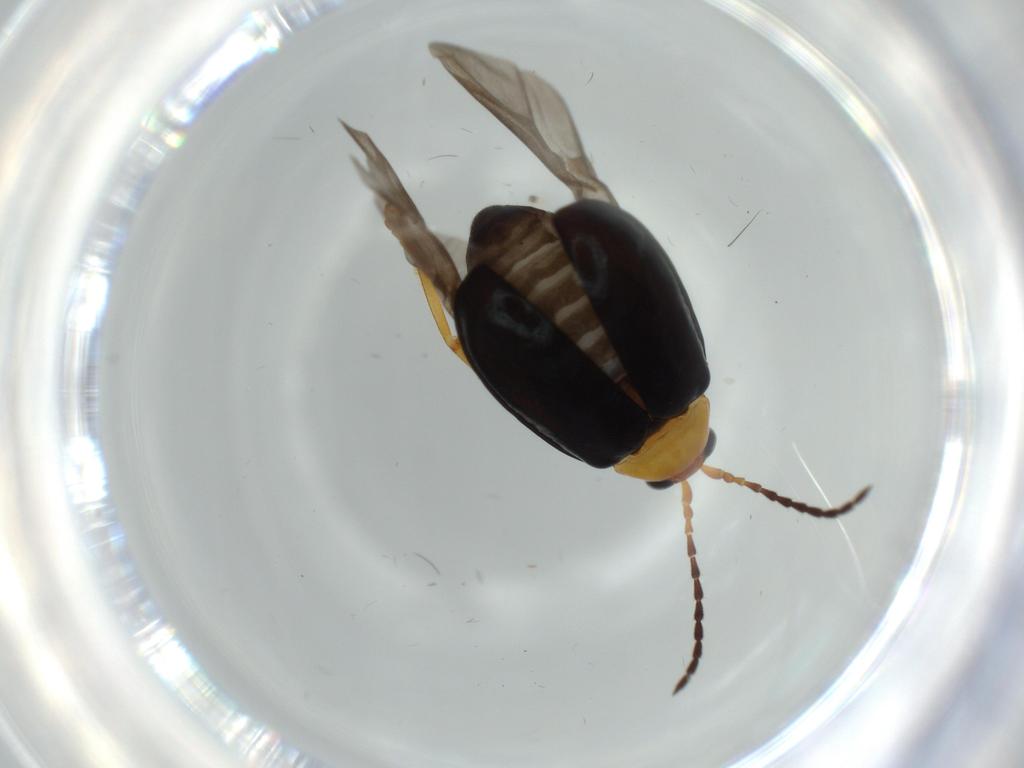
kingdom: Animalia
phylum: Arthropoda
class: Insecta
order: Coleoptera
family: Chrysomelidae
